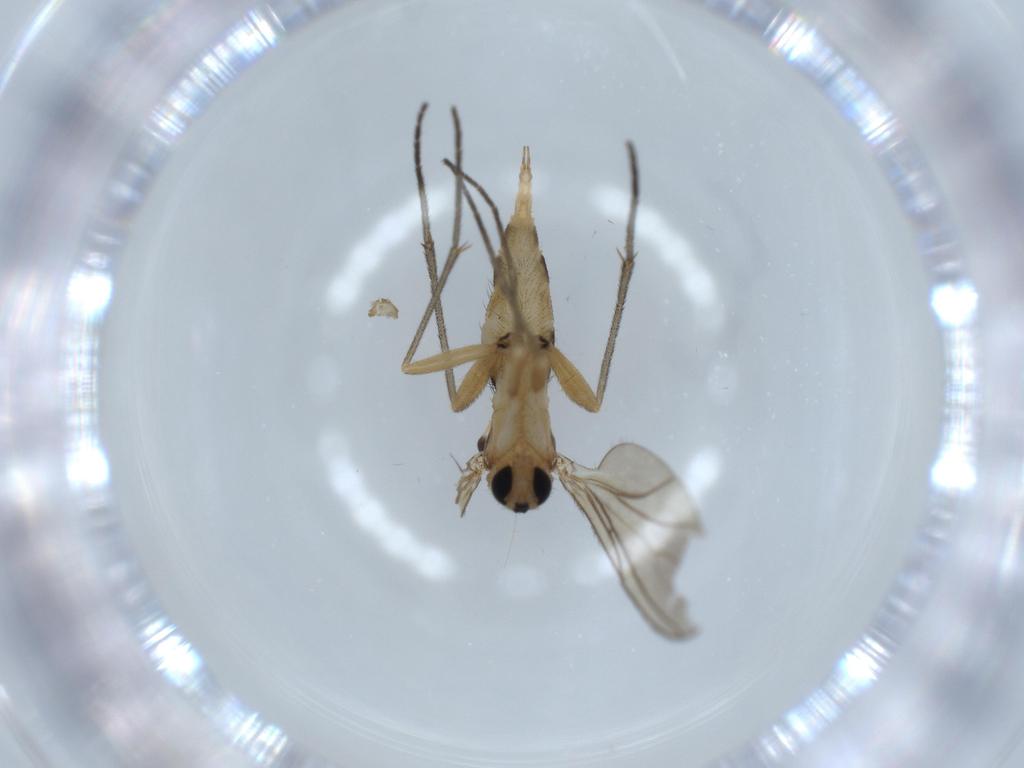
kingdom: Animalia
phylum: Arthropoda
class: Insecta
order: Diptera
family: Sciaridae
